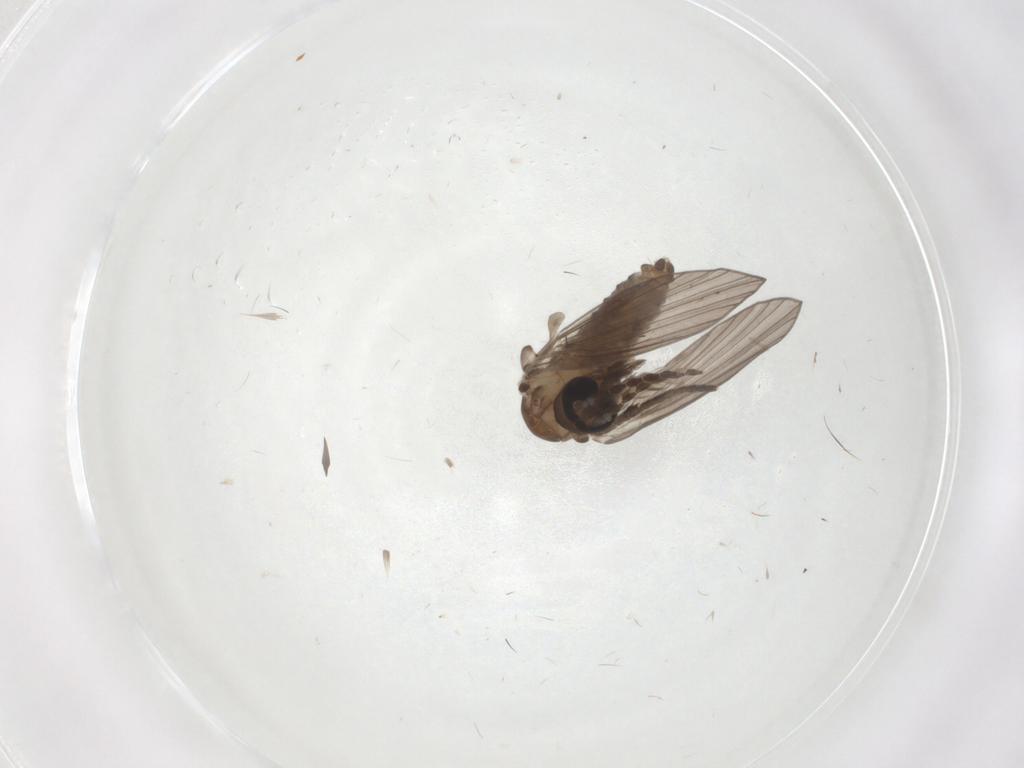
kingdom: Animalia
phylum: Arthropoda
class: Insecta
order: Diptera
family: Psychodidae
